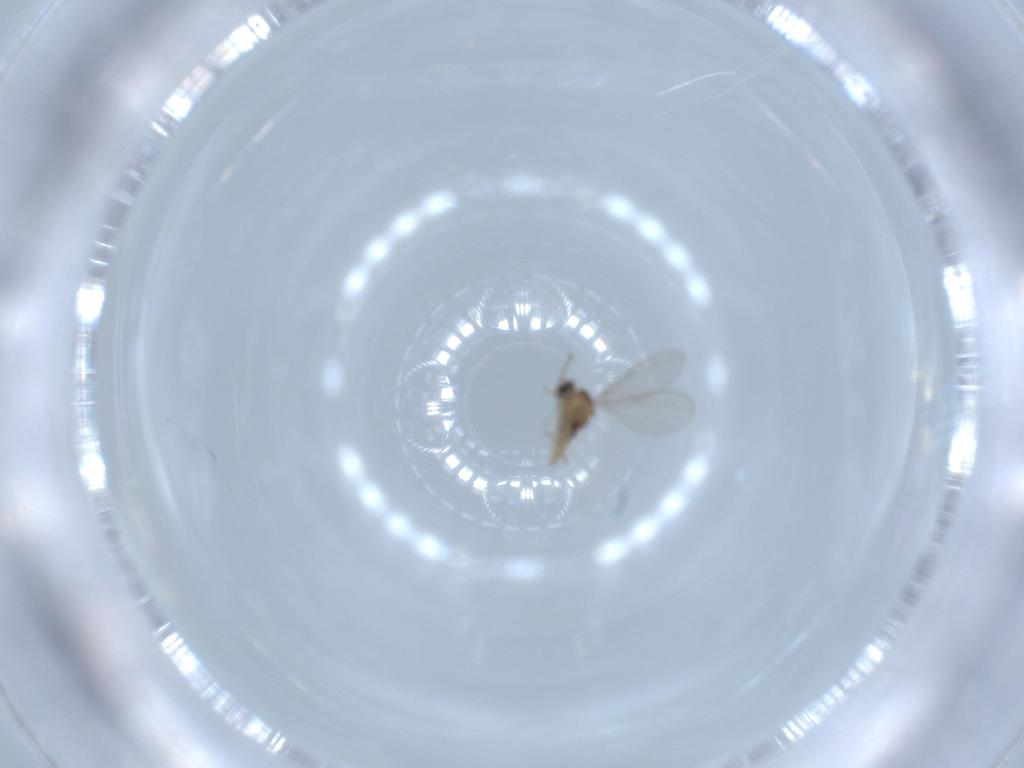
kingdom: Animalia
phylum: Arthropoda
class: Insecta
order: Diptera
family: Cecidomyiidae
